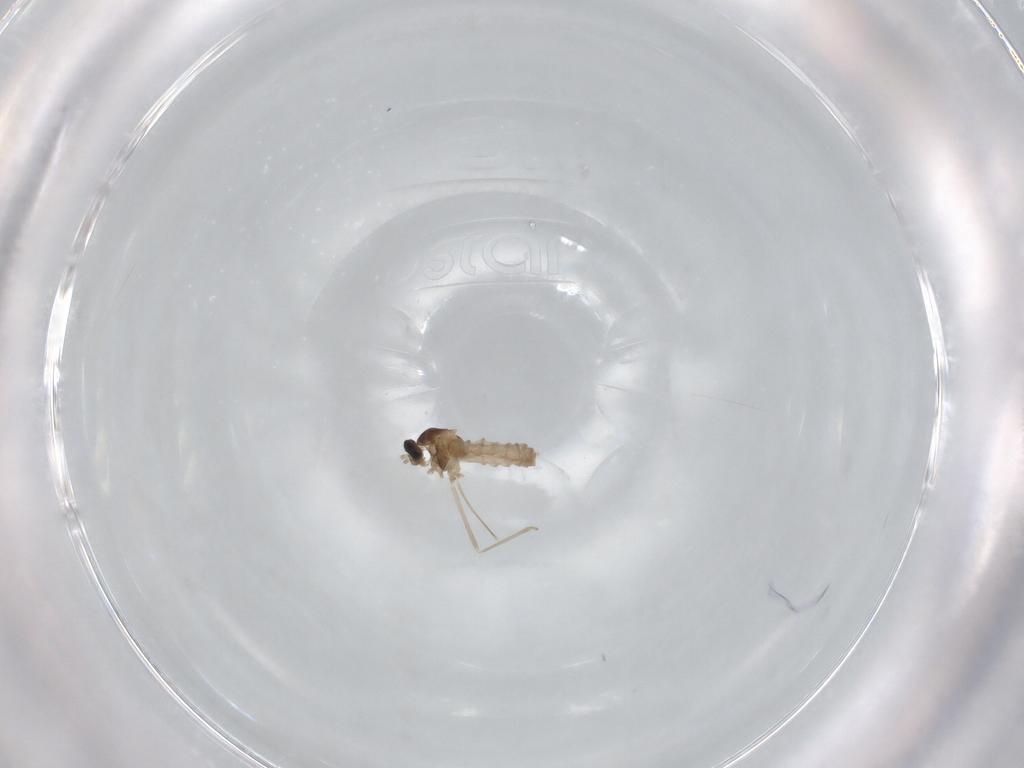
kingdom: Animalia
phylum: Arthropoda
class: Insecta
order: Diptera
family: Cecidomyiidae
